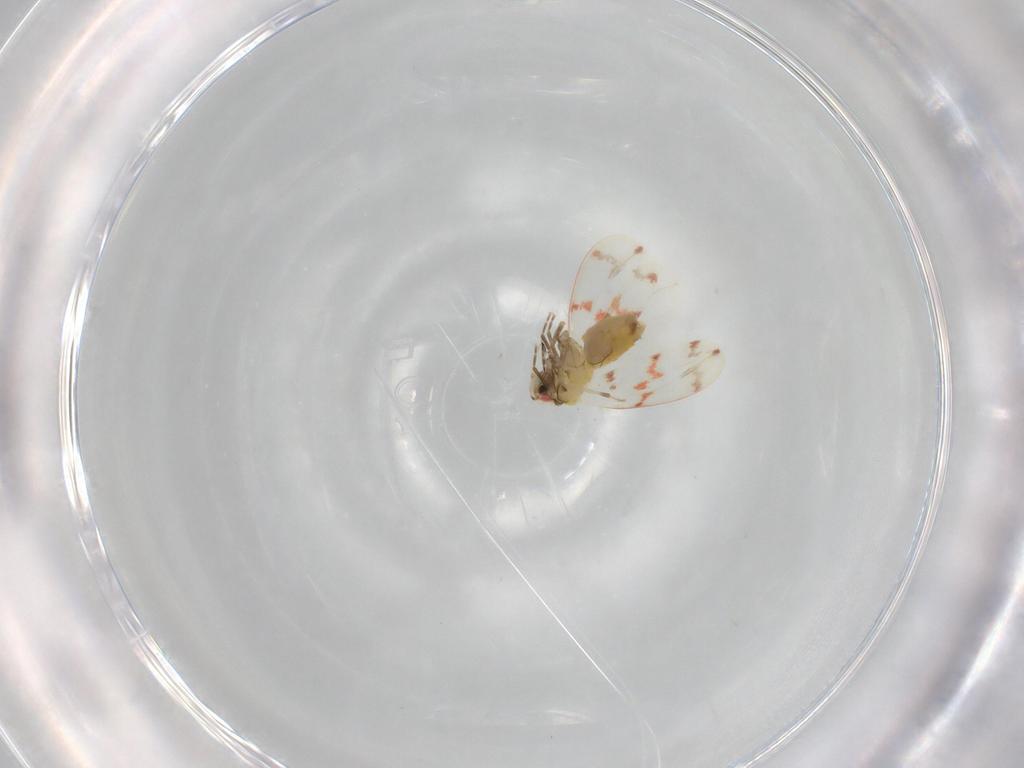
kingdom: Animalia
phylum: Arthropoda
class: Insecta
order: Hemiptera
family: Aleyrodidae
